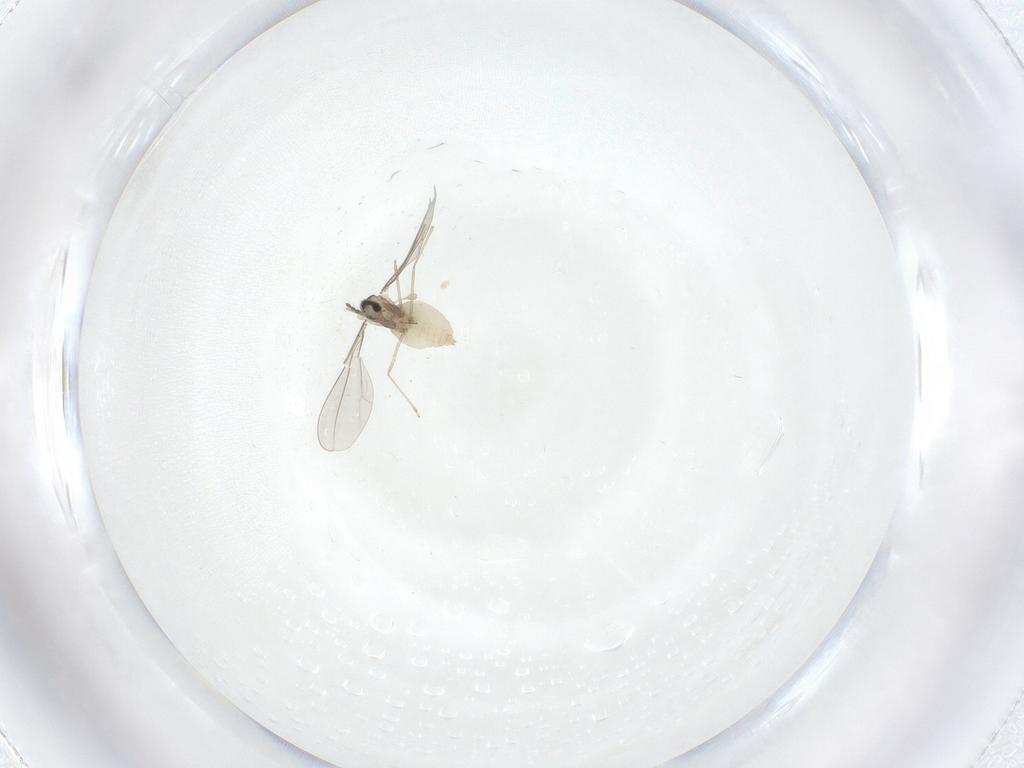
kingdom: Animalia
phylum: Arthropoda
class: Insecta
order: Diptera
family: Cecidomyiidae
